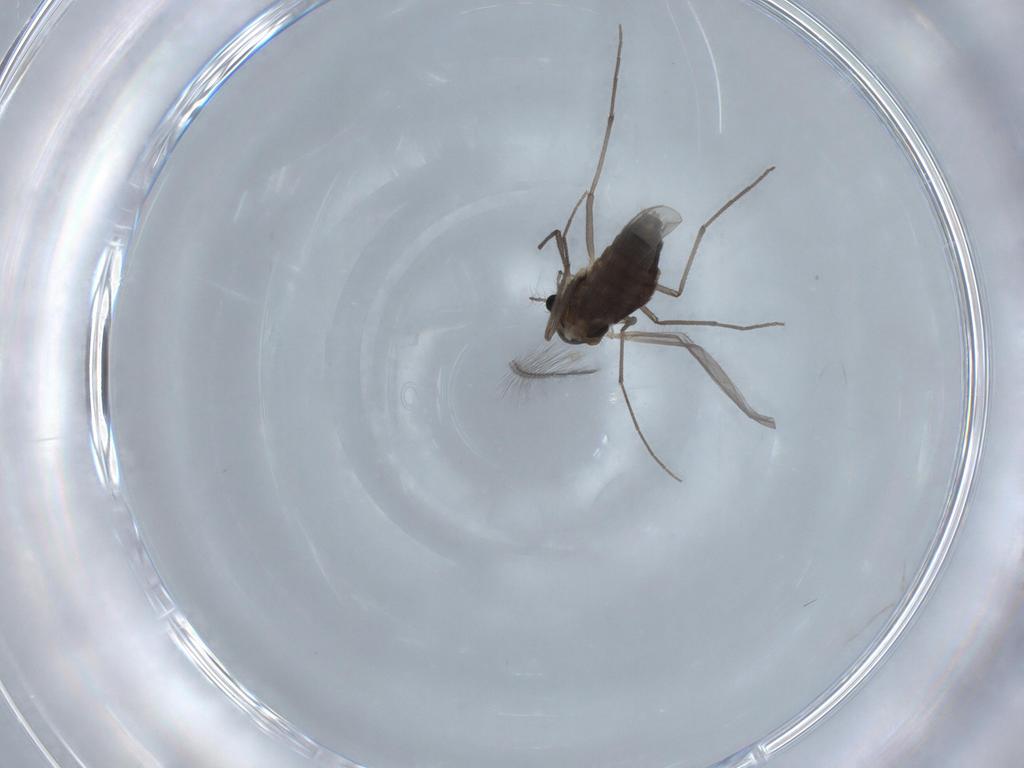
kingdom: Animalia
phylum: Arthropoda
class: Insecta
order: Diptera
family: Chironomidae
